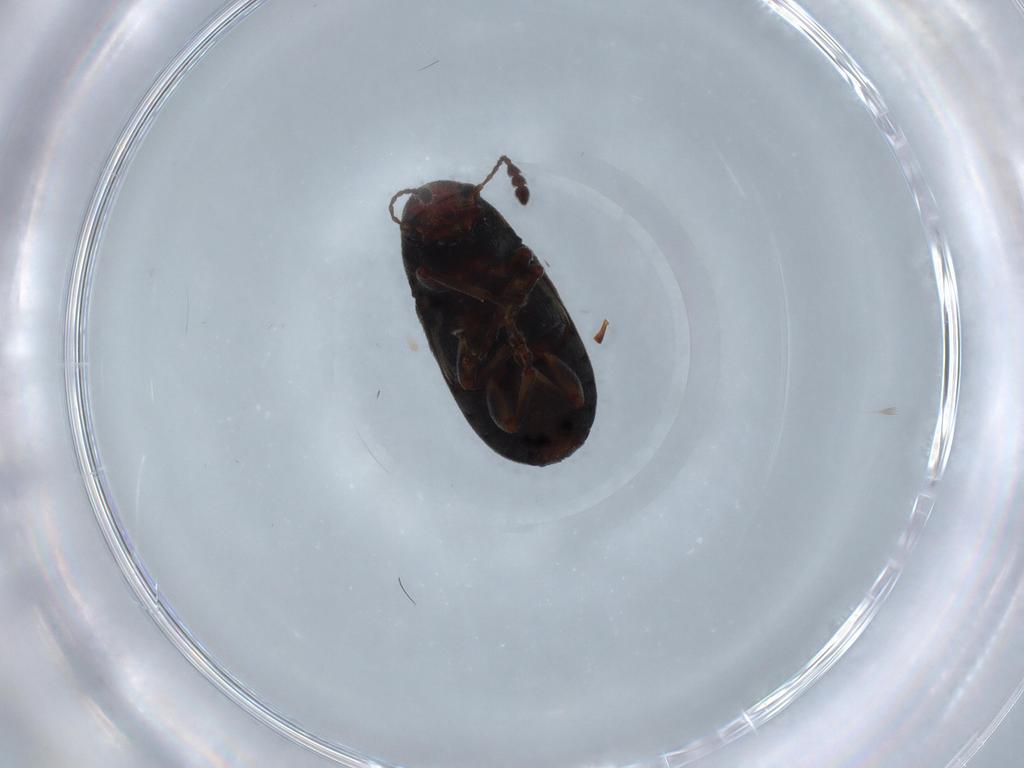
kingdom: Animalia
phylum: Arthropoda
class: Insecta
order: Coleoptera
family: Anthribidae
